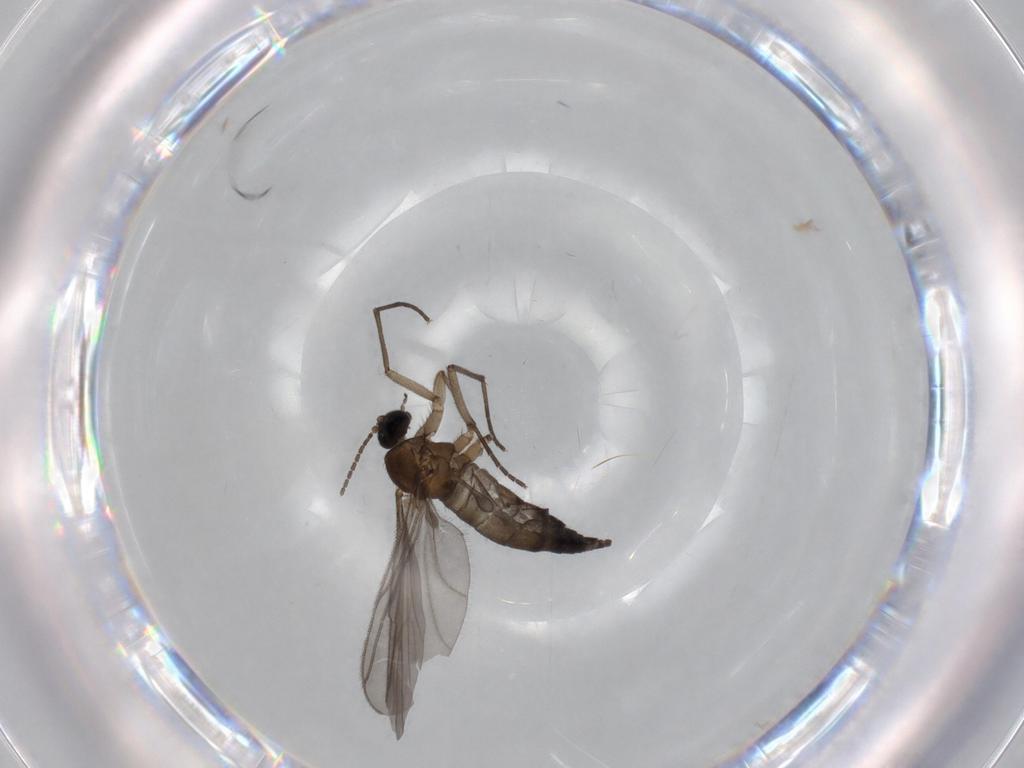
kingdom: Animalia
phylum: Arthropoda
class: Insecta
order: Diptera
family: Sciaridae
